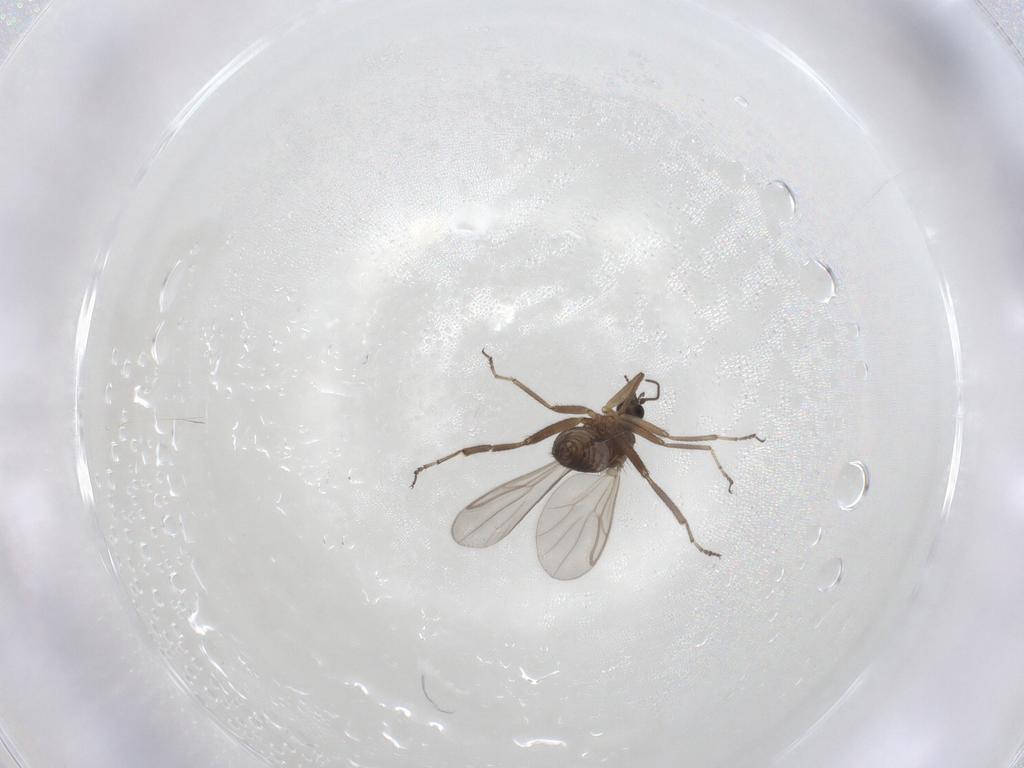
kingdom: Animalia
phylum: Arthropoda
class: Insecta
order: Diptera
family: Ceratopogonidae
